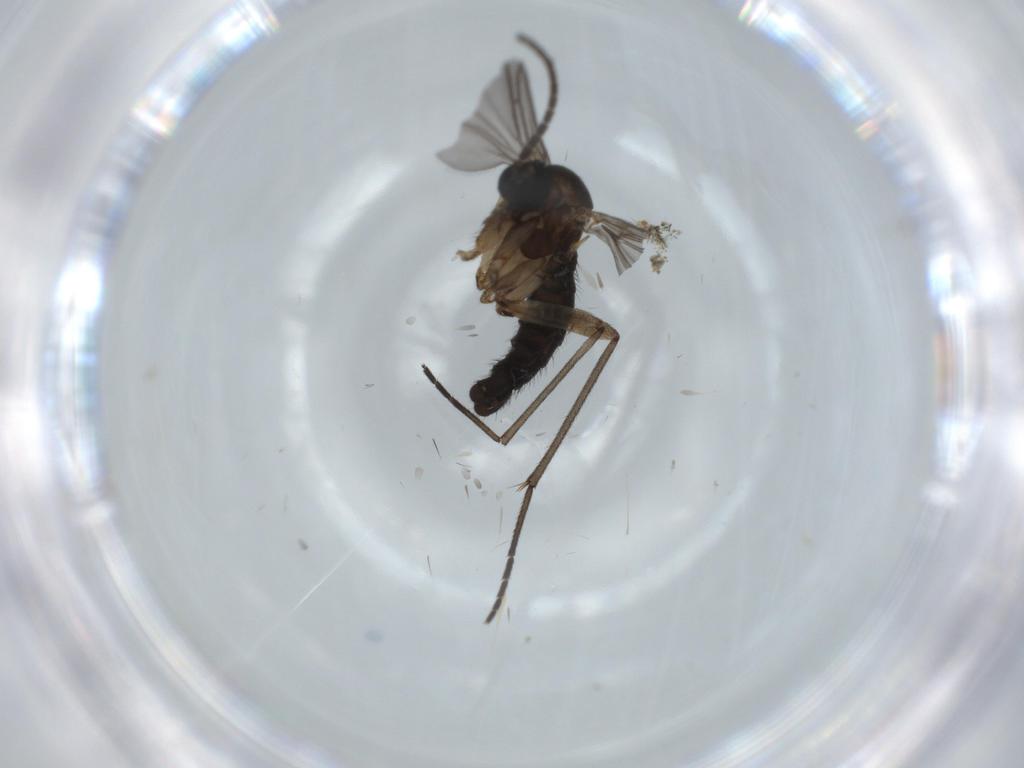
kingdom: Animalia
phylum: Arthropoda
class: Insecta
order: Diptera
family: Sciaridae
